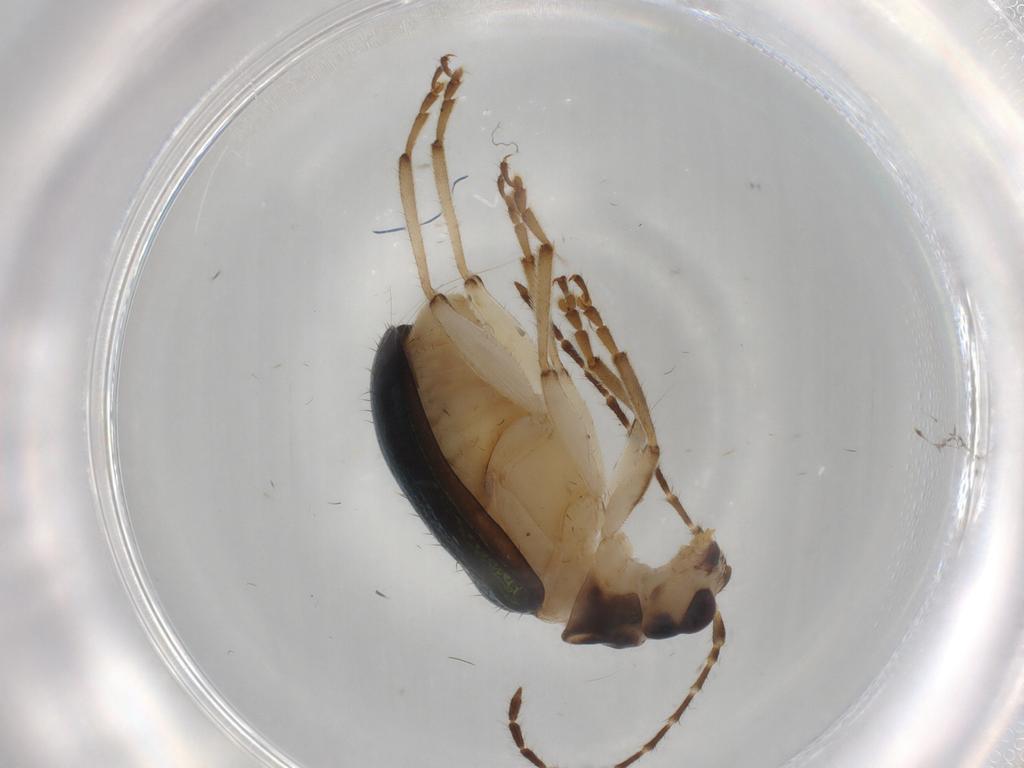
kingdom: Animalia
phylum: Arthropoda
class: Insecta
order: Coleoptera
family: Chrysomelidae
